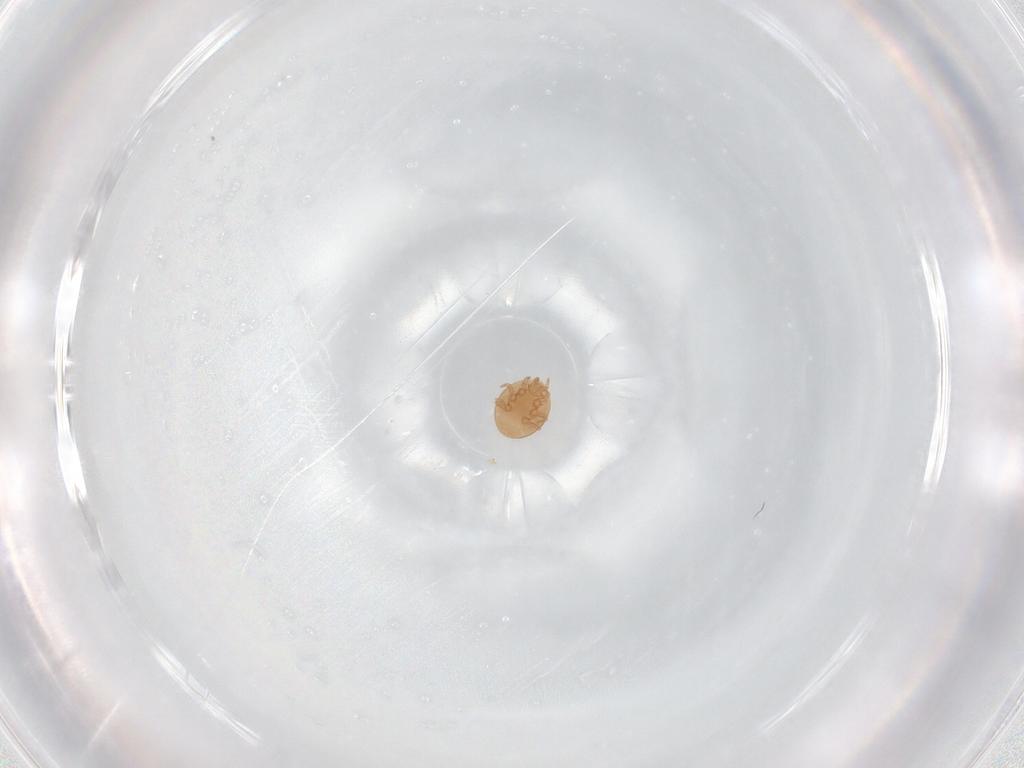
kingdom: Animalia
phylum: Arthropoda
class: Arachnida
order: Mesostigmata
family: Trematuridae
